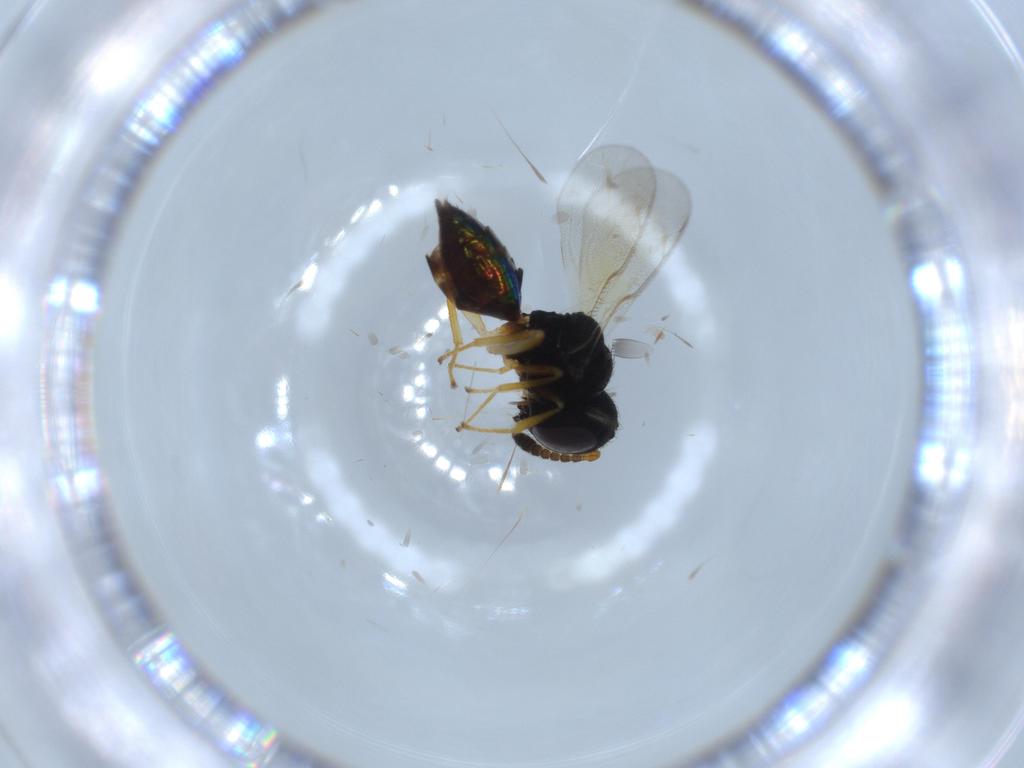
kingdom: Animalia
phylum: Arthropoda
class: Insecta
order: Hymenoptera
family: Pteromalidae
